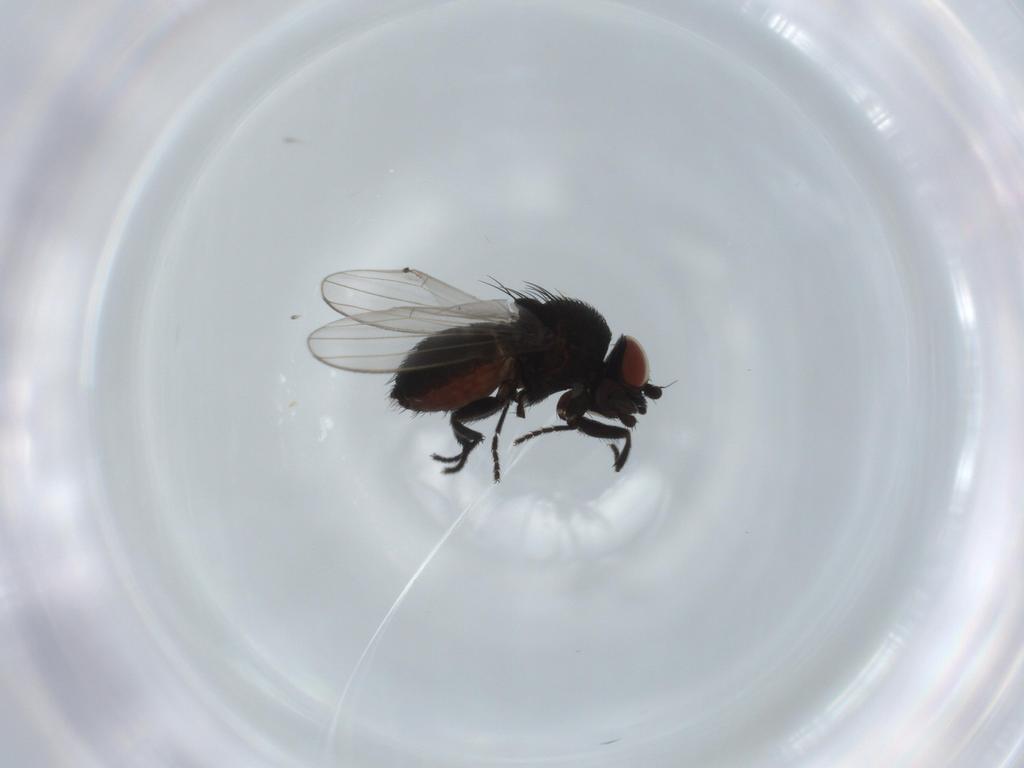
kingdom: Animalia
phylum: Arthropoda
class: Insecta
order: Diptera
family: Milichiidae
